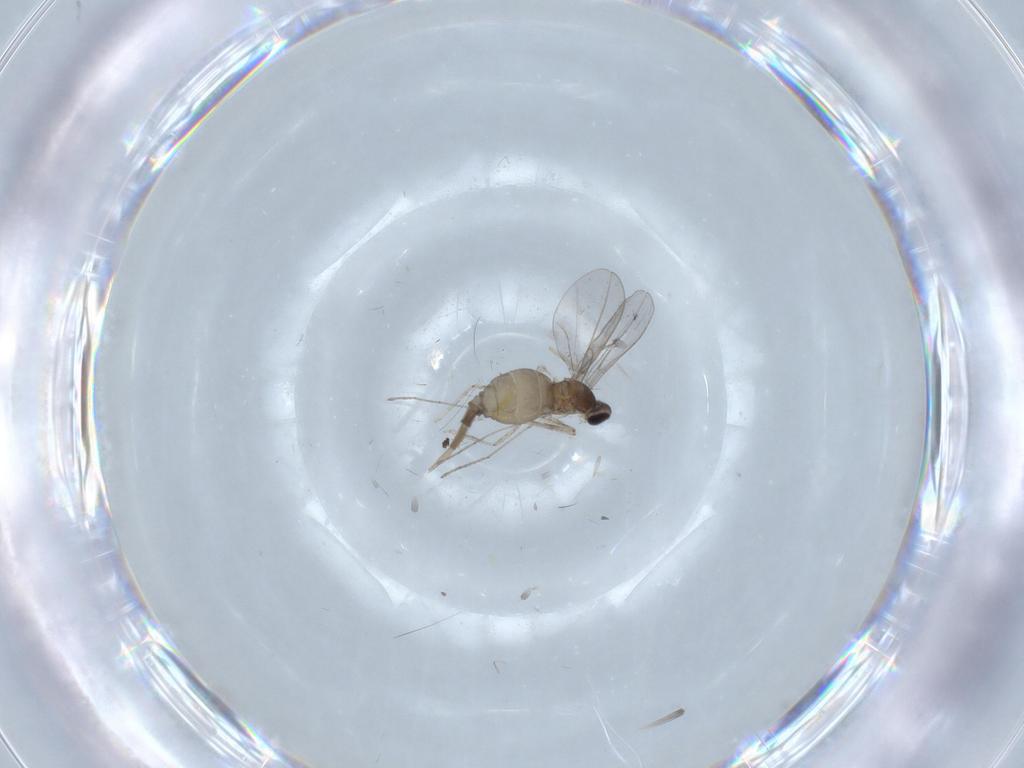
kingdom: Animalia
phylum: Arthropoda
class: Insecta
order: Diptera
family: Cecidomyiidae
